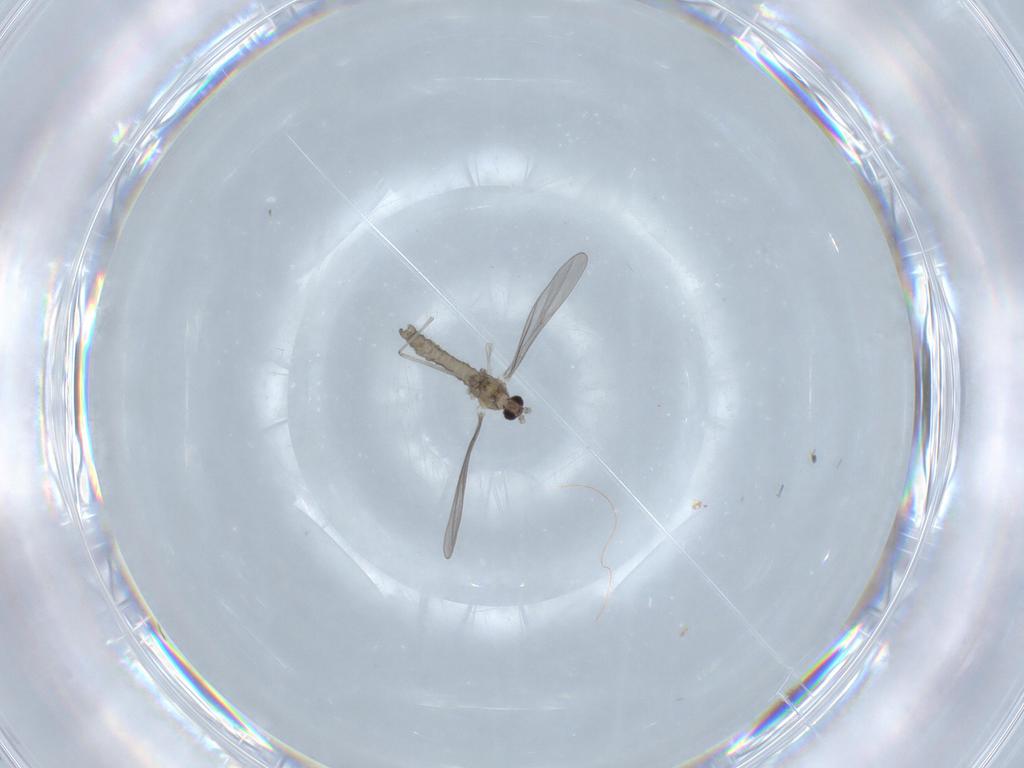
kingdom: Animalia
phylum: Arthropoda
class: Insecta
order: Diptera
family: Cecidomyiidae
